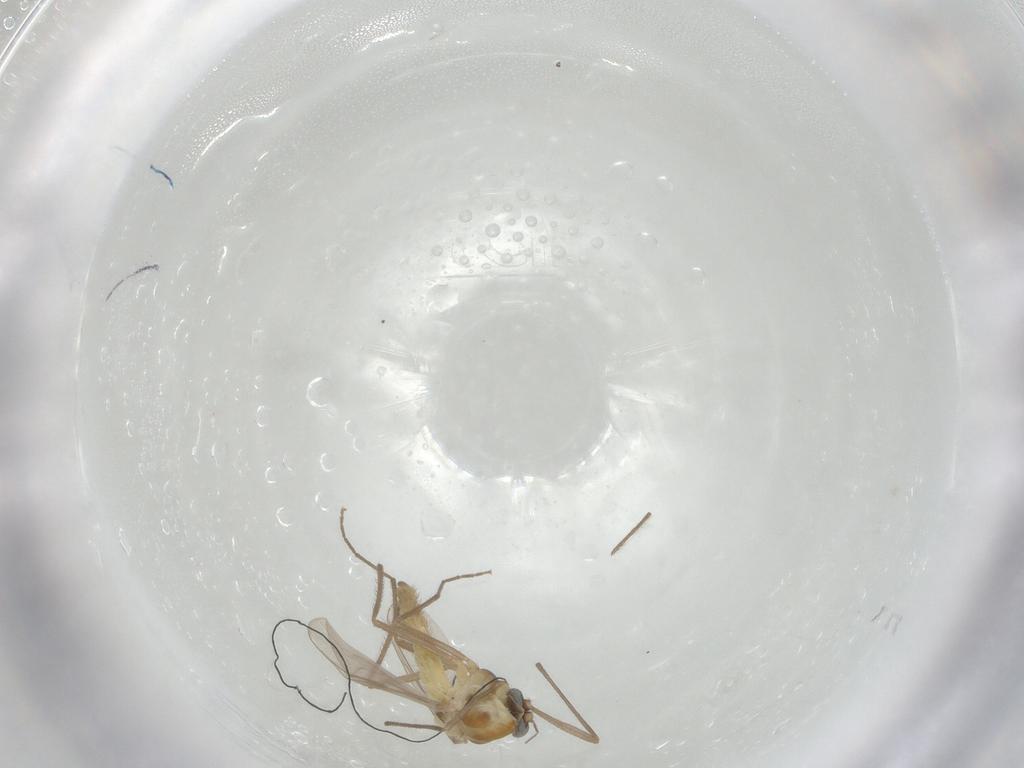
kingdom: Animalia
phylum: Arthropoda
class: Insecta
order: Diptera
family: Chironomidae
